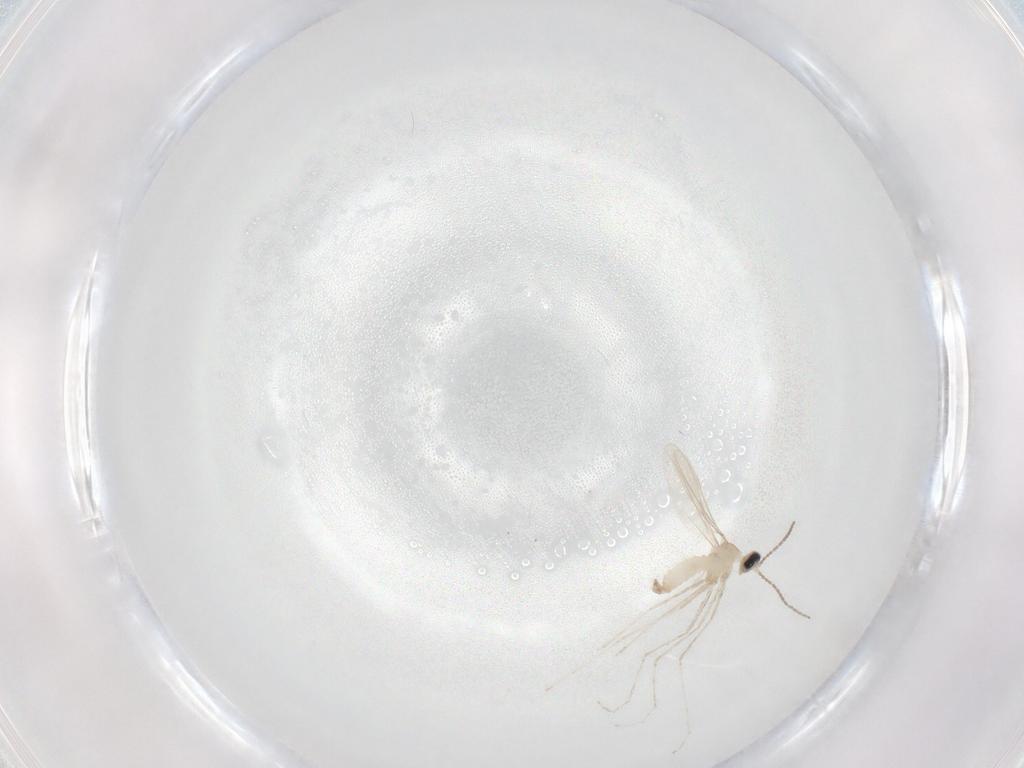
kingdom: Animalia
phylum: Arthropoda
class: Insecta
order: Diptera
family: Cecidomyiidae
